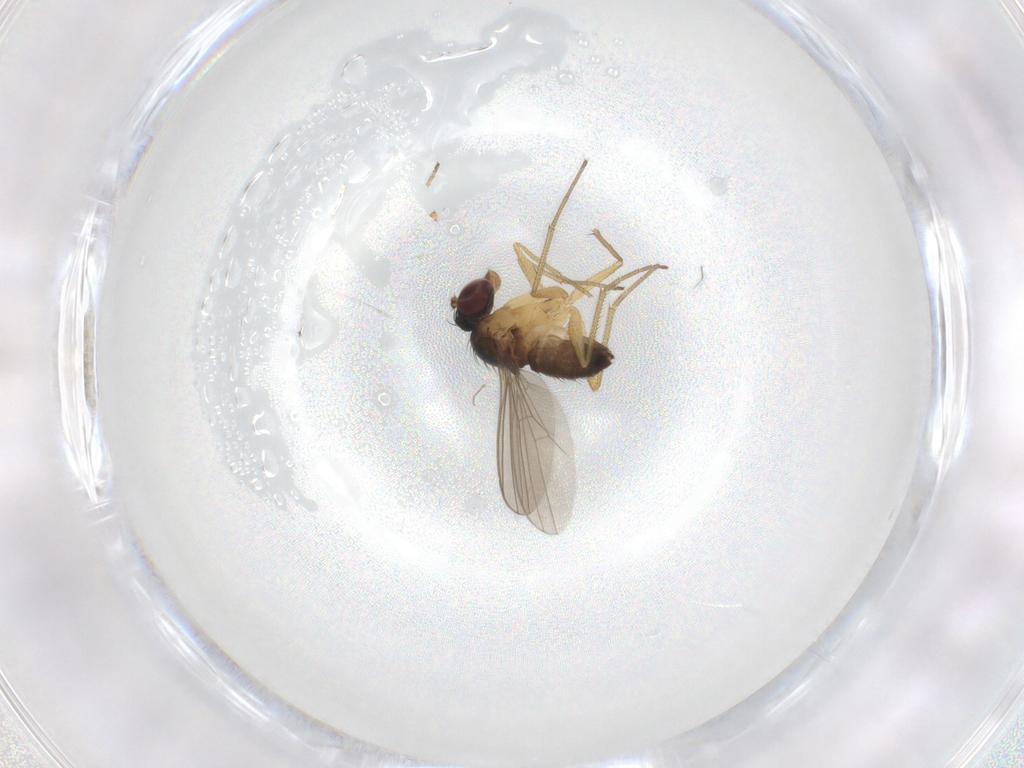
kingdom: Animalia
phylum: Arthropoda
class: Insecta
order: Diptera
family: Dolichopodidae
